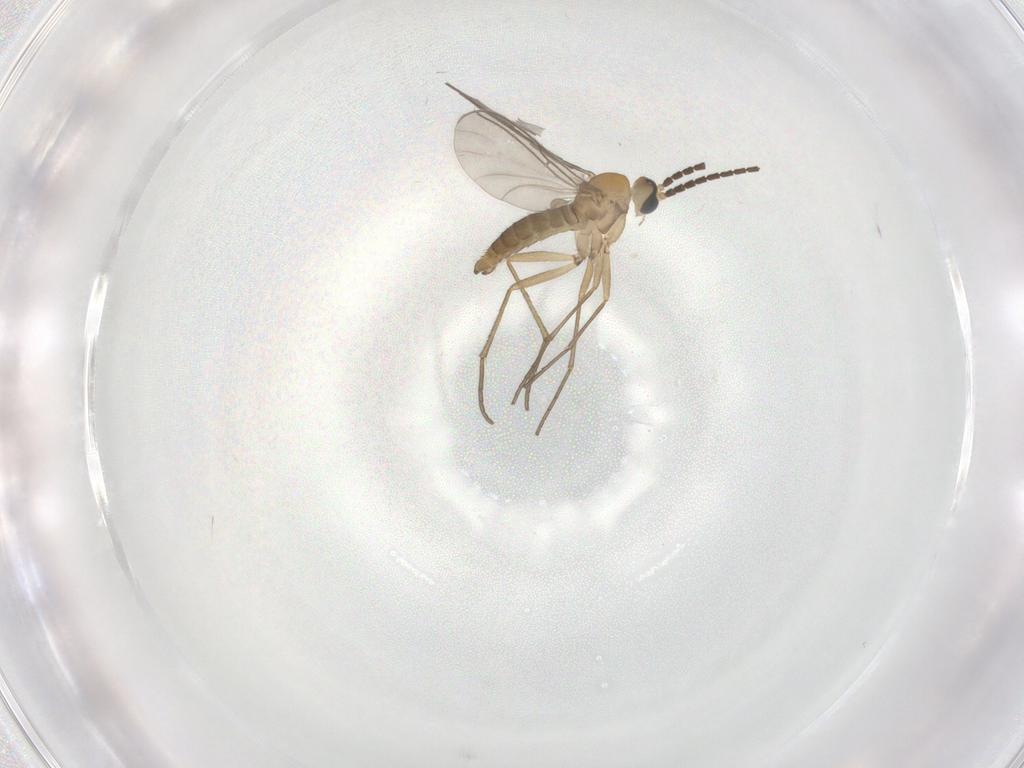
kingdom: Animalia
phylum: Arthropoda
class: Insecta
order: Diptera
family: Sciaridae
